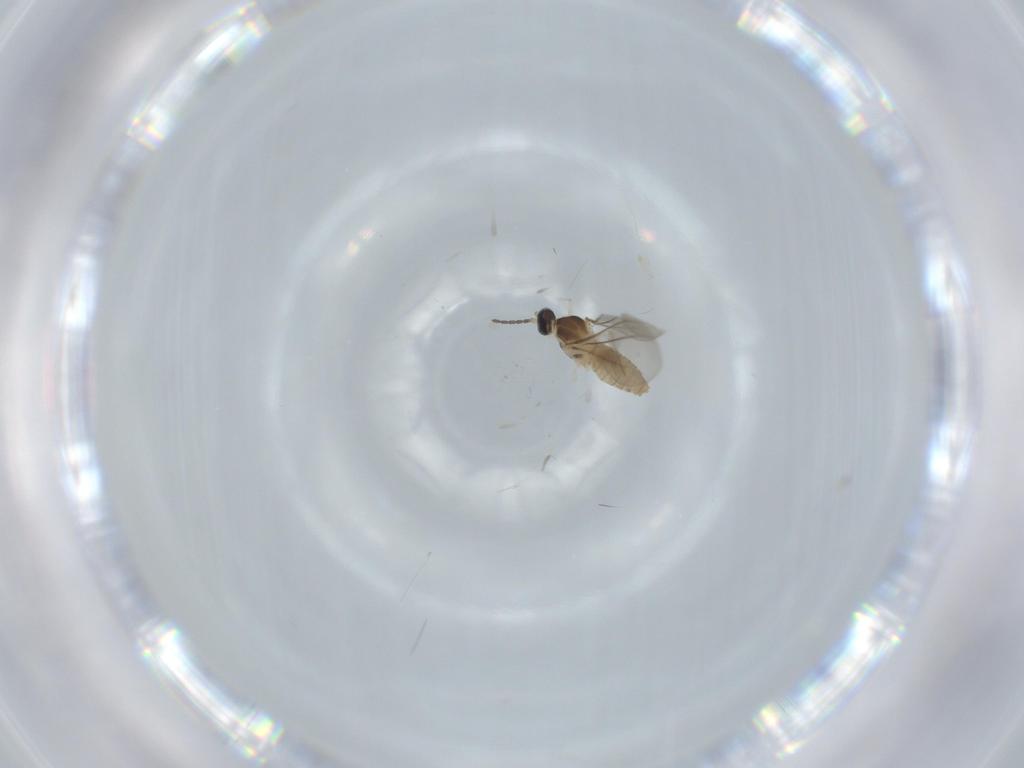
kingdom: Animalia
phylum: Arthropoda
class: Insecta
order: Diptera
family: Cecidomyiidae
